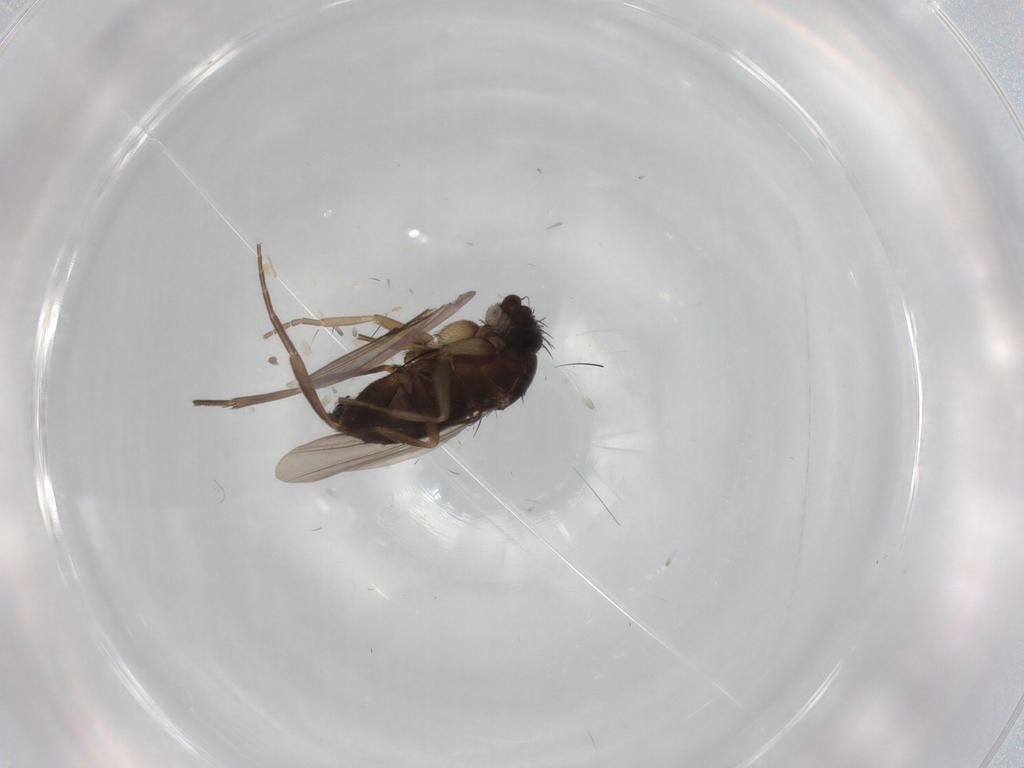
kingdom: Animalia
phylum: Arthropoda
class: Insecta
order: Diptera
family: Phoridae
